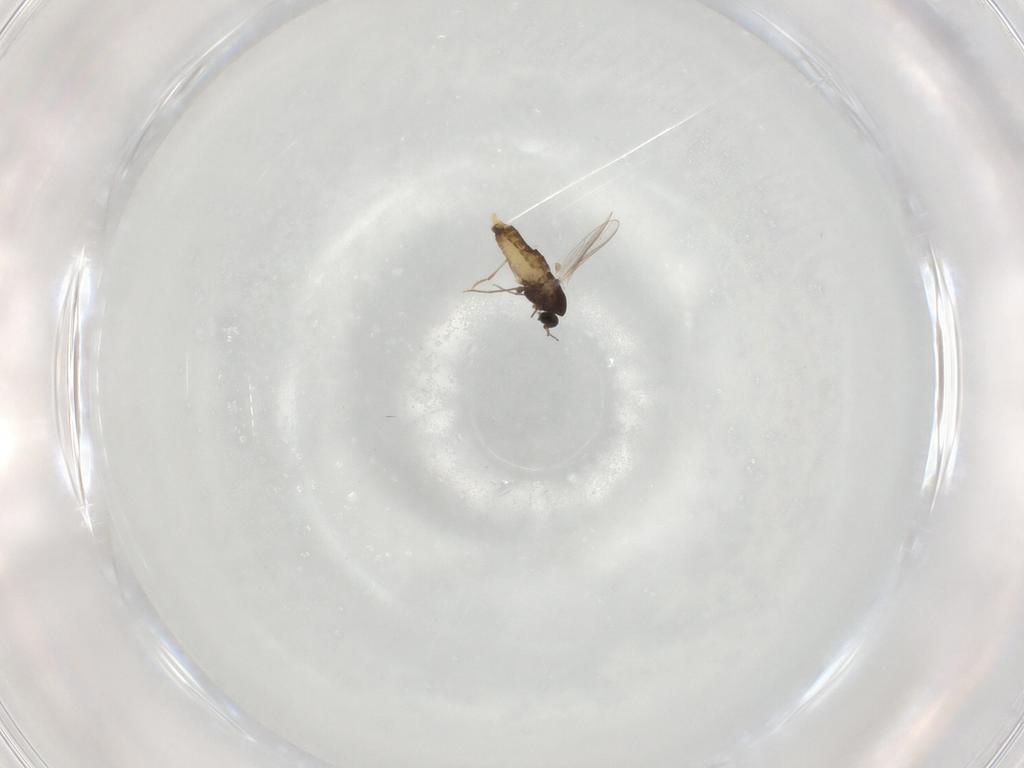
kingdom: Animalia
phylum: Arthropoda
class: Insecta
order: Diptera
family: Chironomidae
